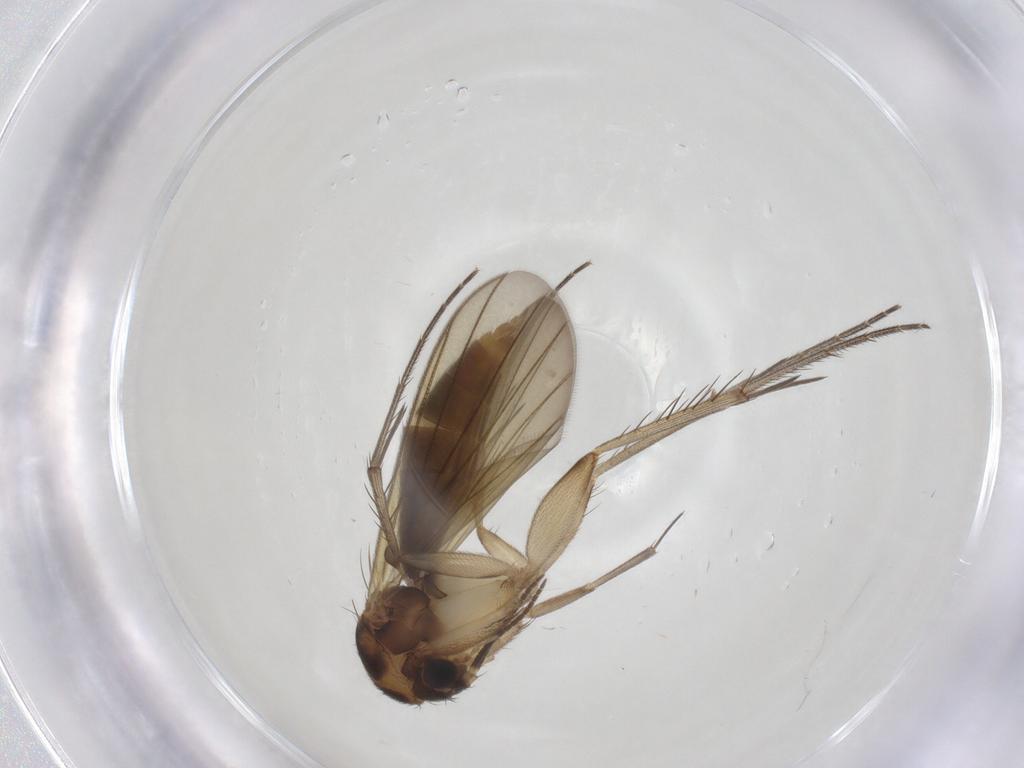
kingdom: Animalia
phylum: Arthropoda
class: Insecta
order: Diptera
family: Mycetophilidae
